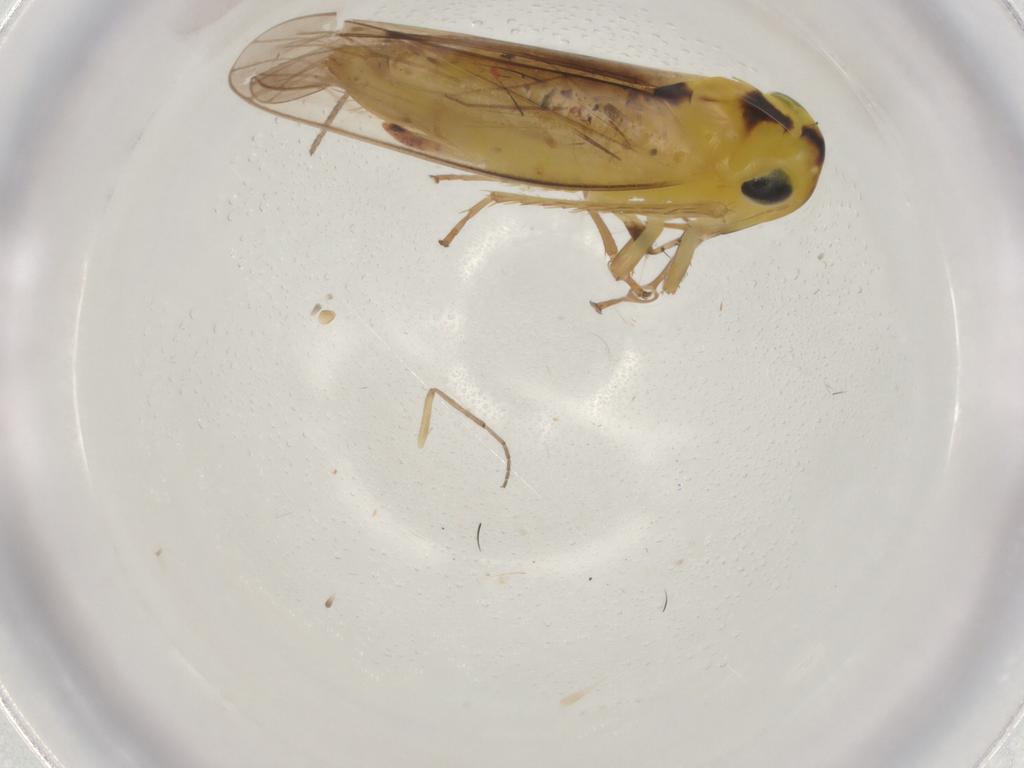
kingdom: Animalia
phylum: Arthropoda
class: Insecta
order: Hemiptera
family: Cicadellidae
